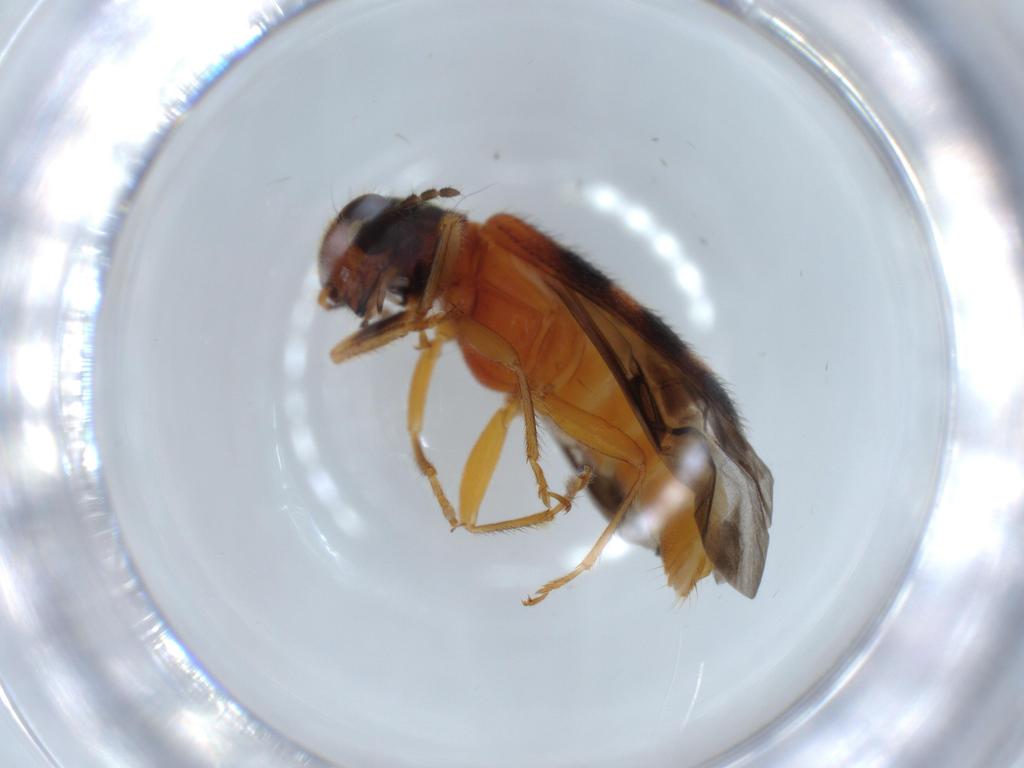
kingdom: Animalia
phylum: Arthropoda
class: Insecta
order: Coleoptera
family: Cleridae
